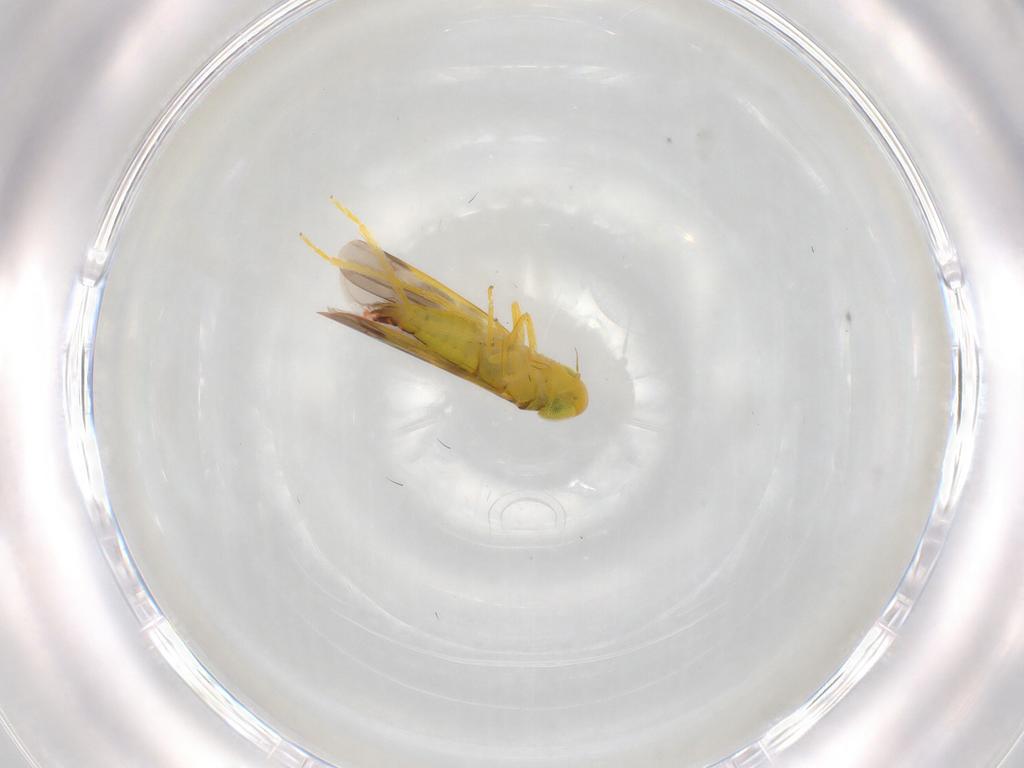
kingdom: Animalia
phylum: Arthropoda
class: Insecta
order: Hemiptera
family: Cicadellidae
